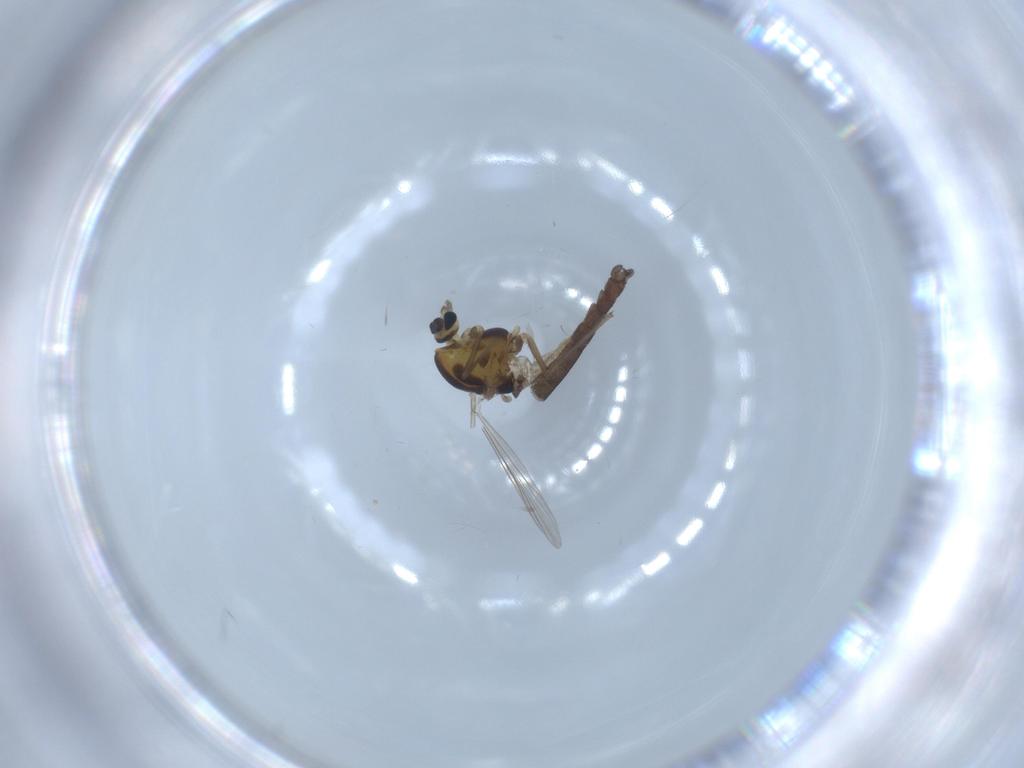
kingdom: Animalia
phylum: Arthropoda
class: Insecta
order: Diptera
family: Chironomidae
